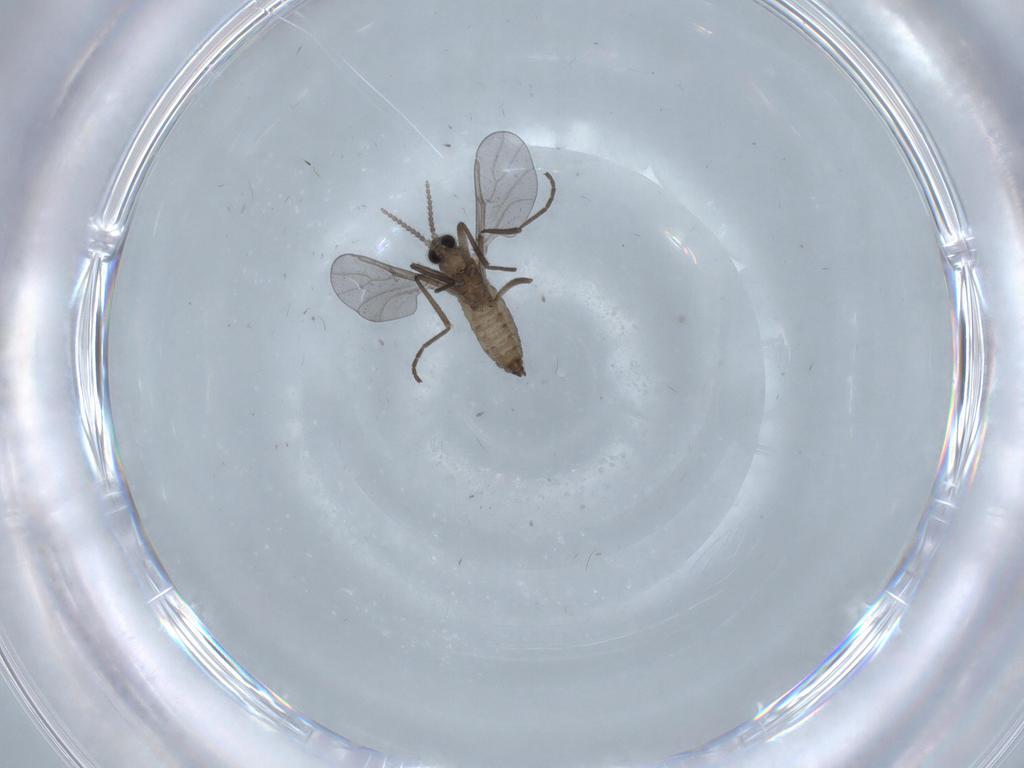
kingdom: Animalia
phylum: Arthropoda
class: Insecta
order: Diptera
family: Cecidomyiidae
